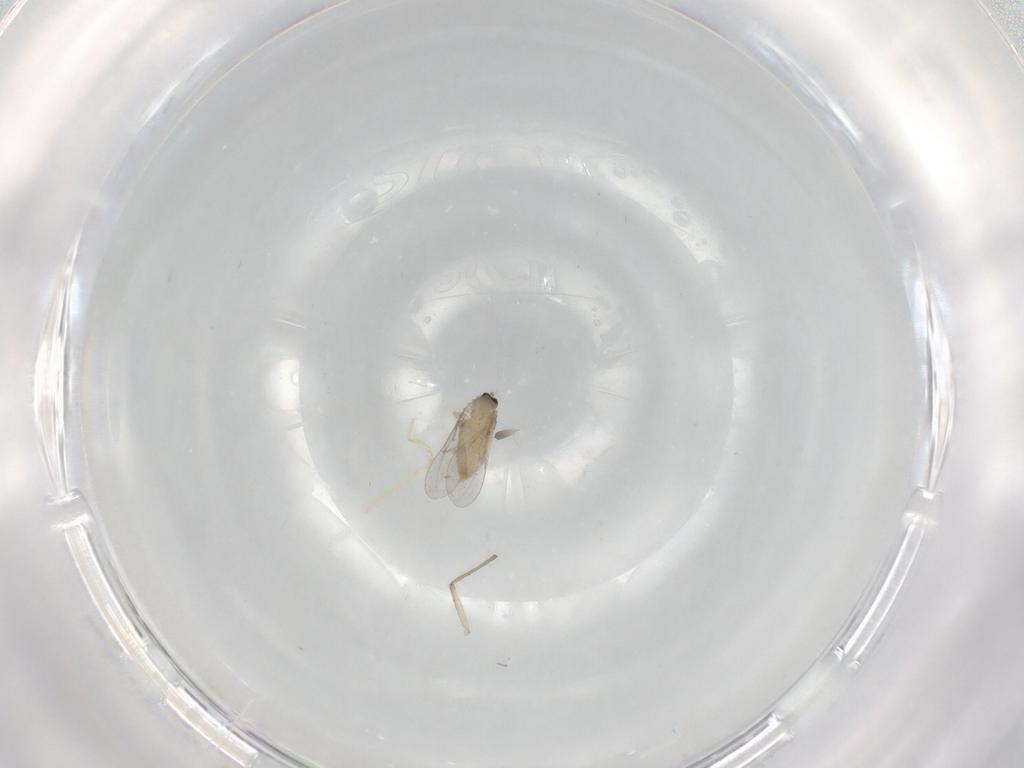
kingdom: Animalia
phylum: Arthropoda
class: Insecta
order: Diptera
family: Cecidomyiidae
